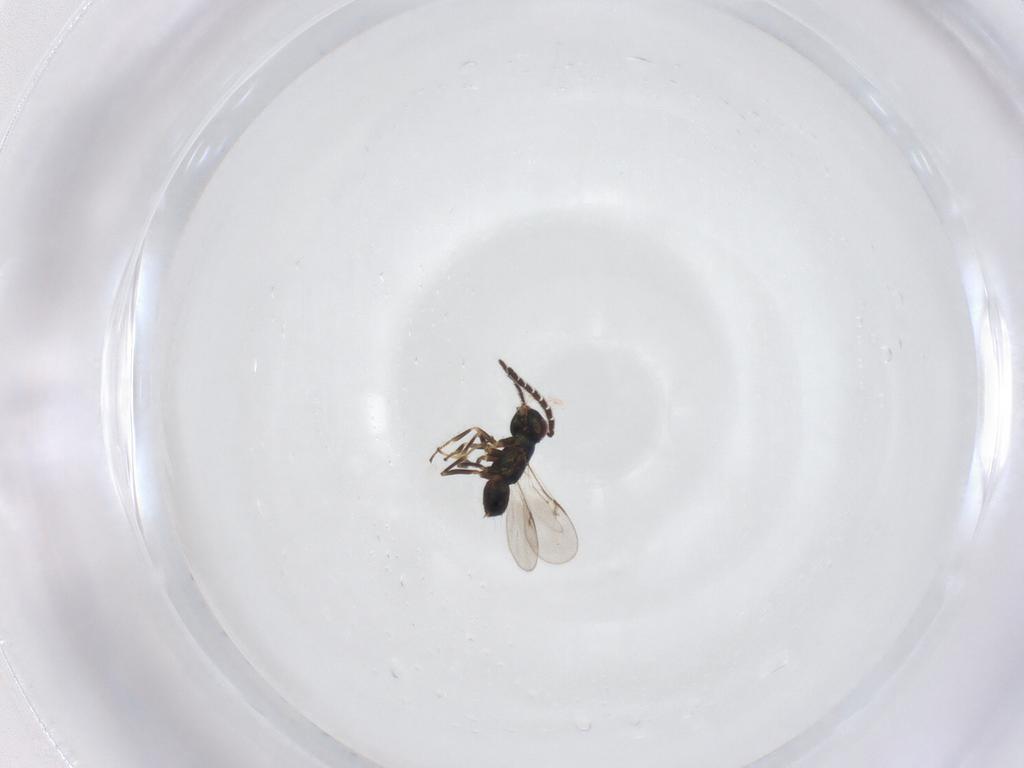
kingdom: Animalia
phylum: Arthropoda
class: Insecta
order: Hymenoptera
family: Encyrtidae
